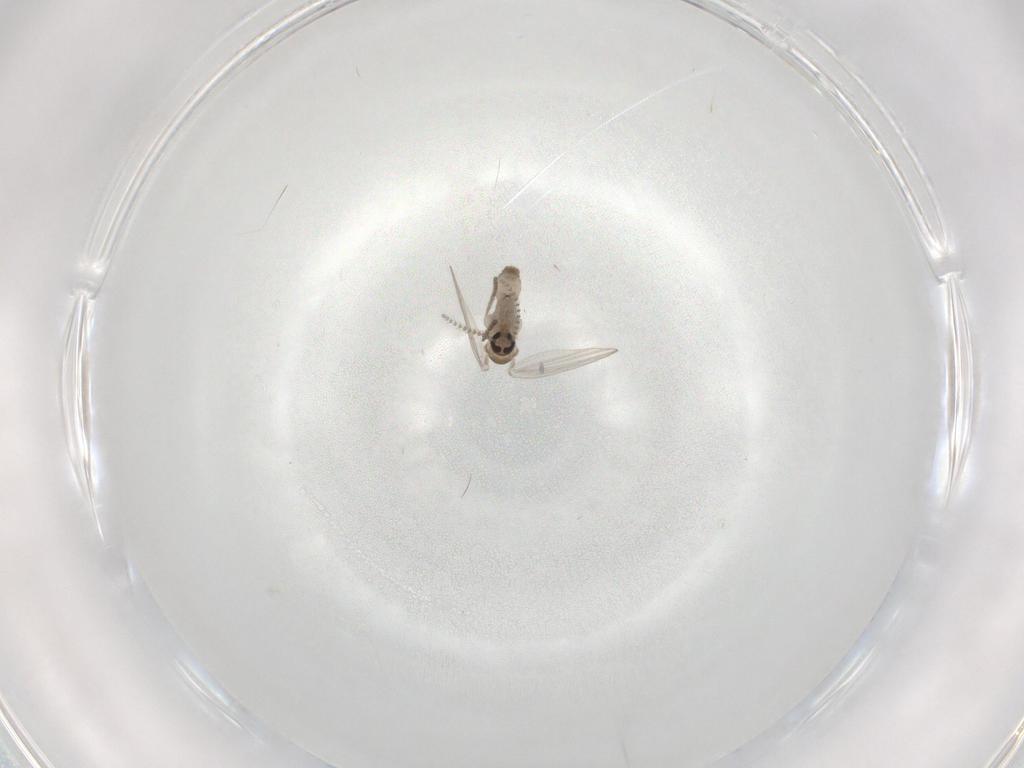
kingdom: Animalia
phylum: Arthropoda
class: Insecta
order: Diptera
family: Psychodidae
